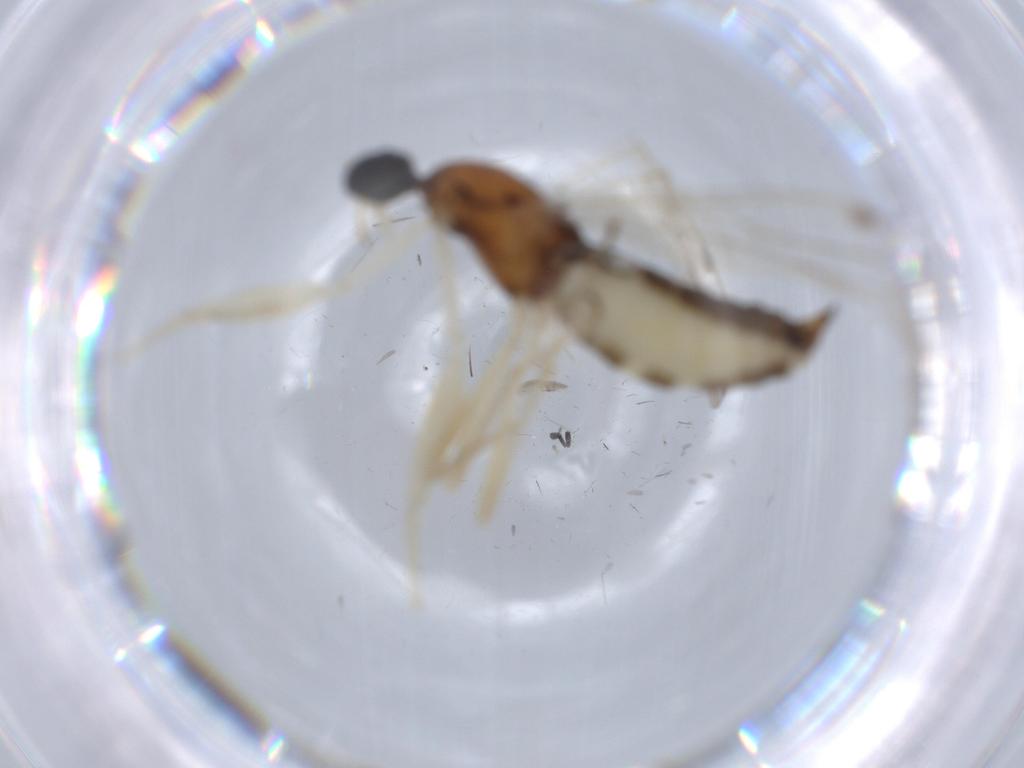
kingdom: Animalia
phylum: Arthropoda
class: Insecta
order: Diptera
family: Empididae
